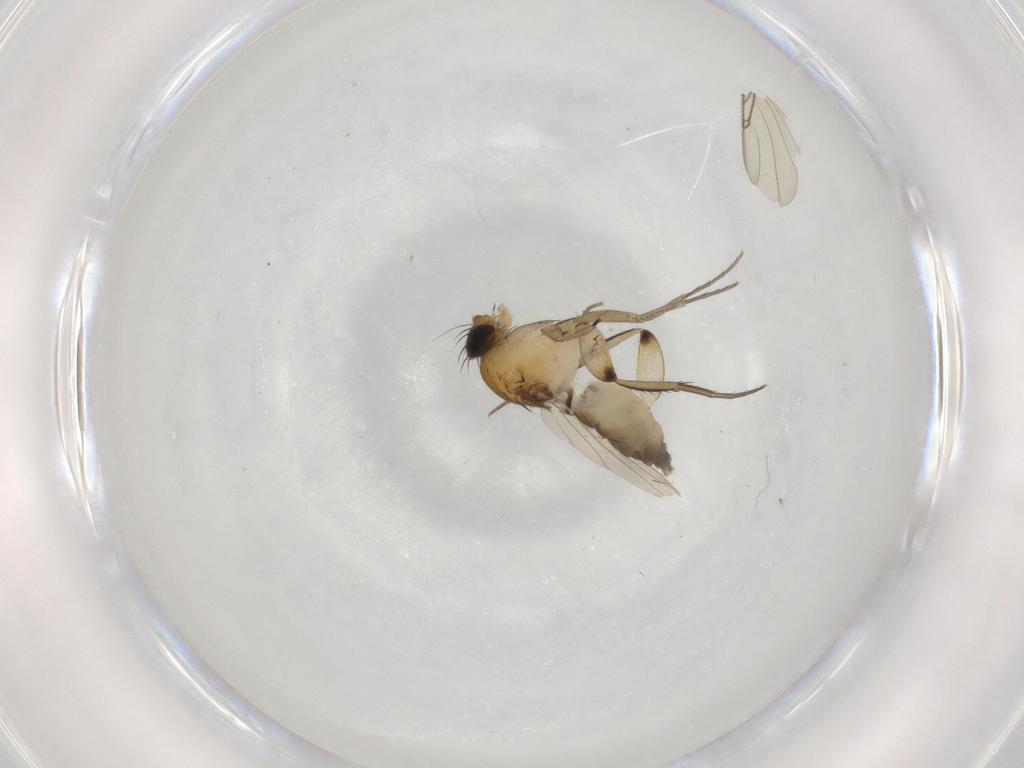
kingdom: Animalia
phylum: Arthropoda
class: Insecta
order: Diptera
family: Phoridae
